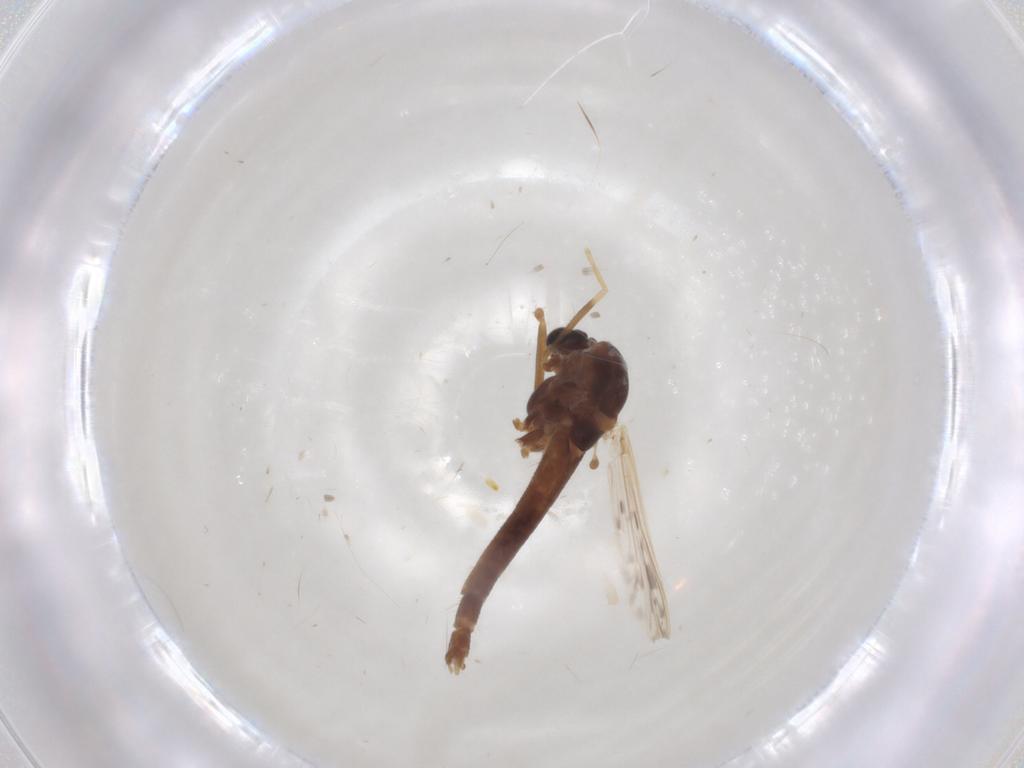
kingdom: Animalia
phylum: Arthropoda
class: Insecta
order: Diptera
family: Chironomidae
